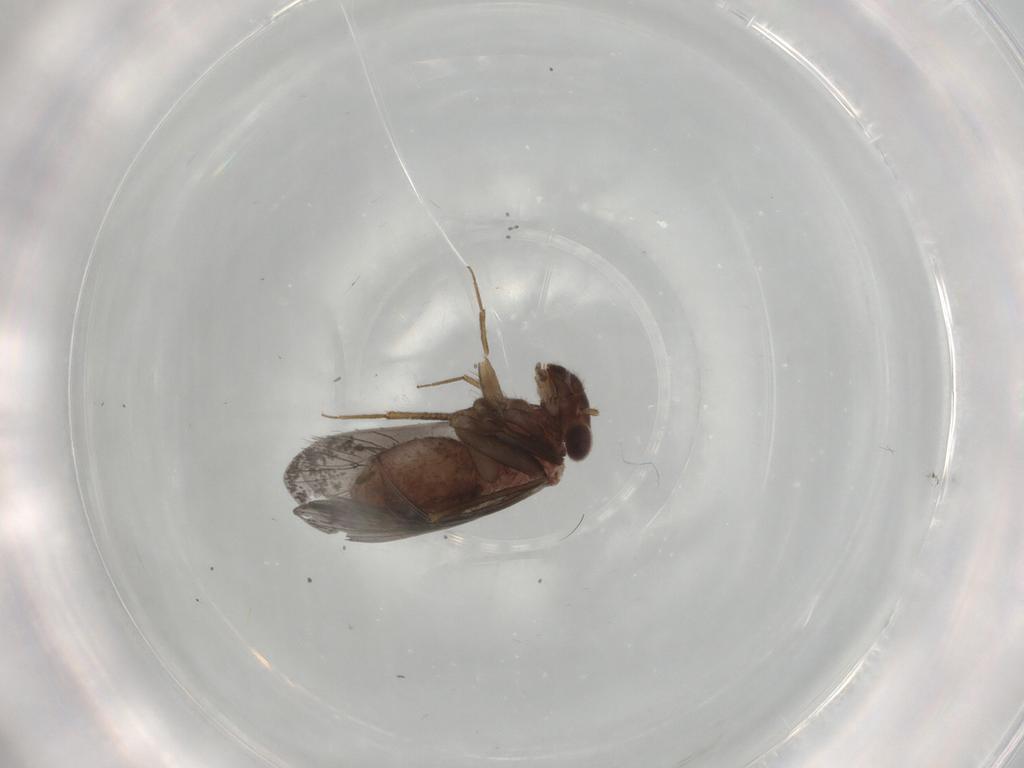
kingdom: Animalia
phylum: Arthropoda
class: Insecta
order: Psocodea
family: Lepidopsocidae
